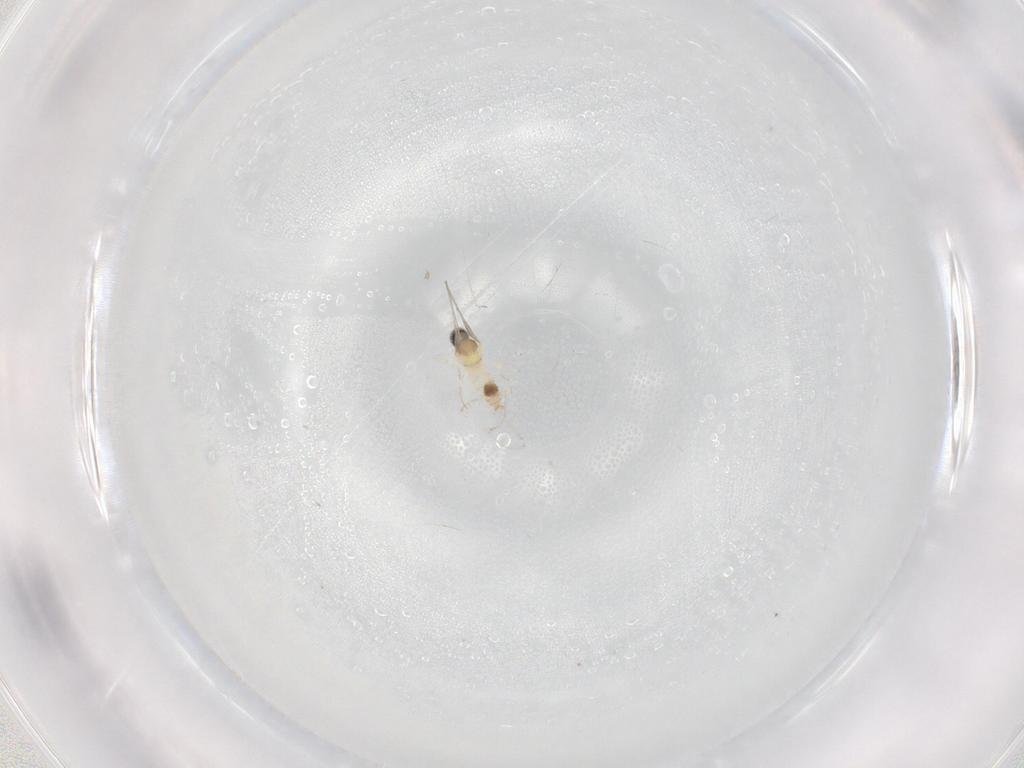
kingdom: Animalia
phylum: Arthropoda
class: Insecta
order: Diptera
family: Cecidomyiidae
